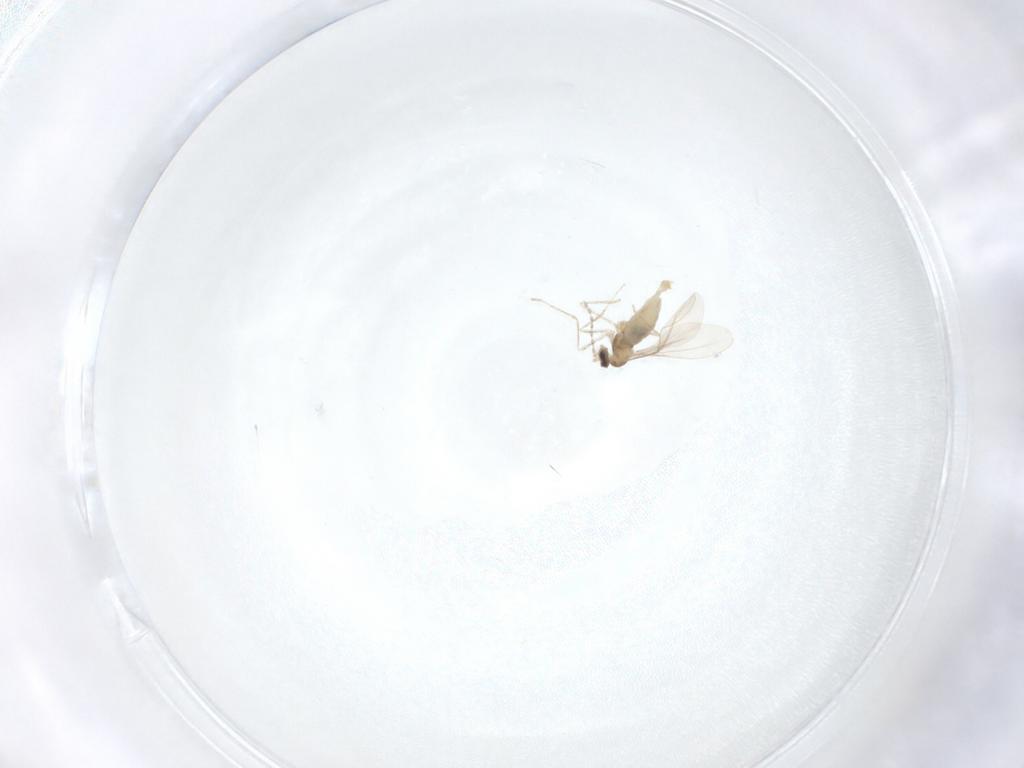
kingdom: Animalia
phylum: Arthropoda
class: Insecta
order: Diptera
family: Cecidomyiidae
